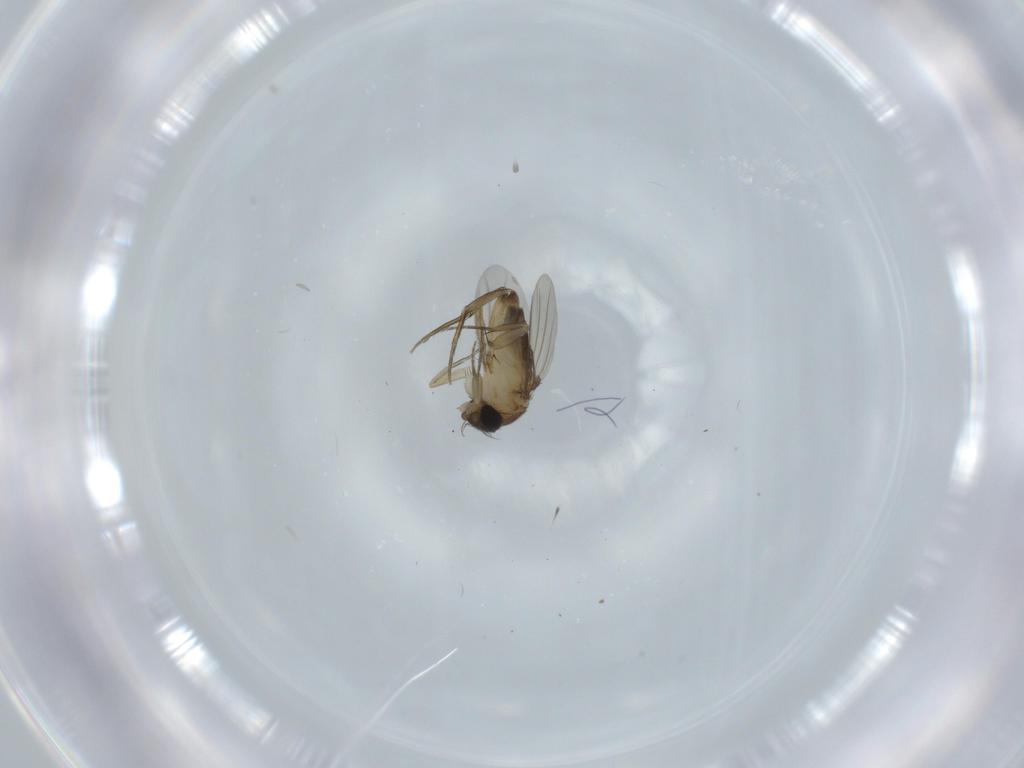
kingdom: Animalia
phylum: Arthropoda
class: Insecta
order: Diptera
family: Phoridae
